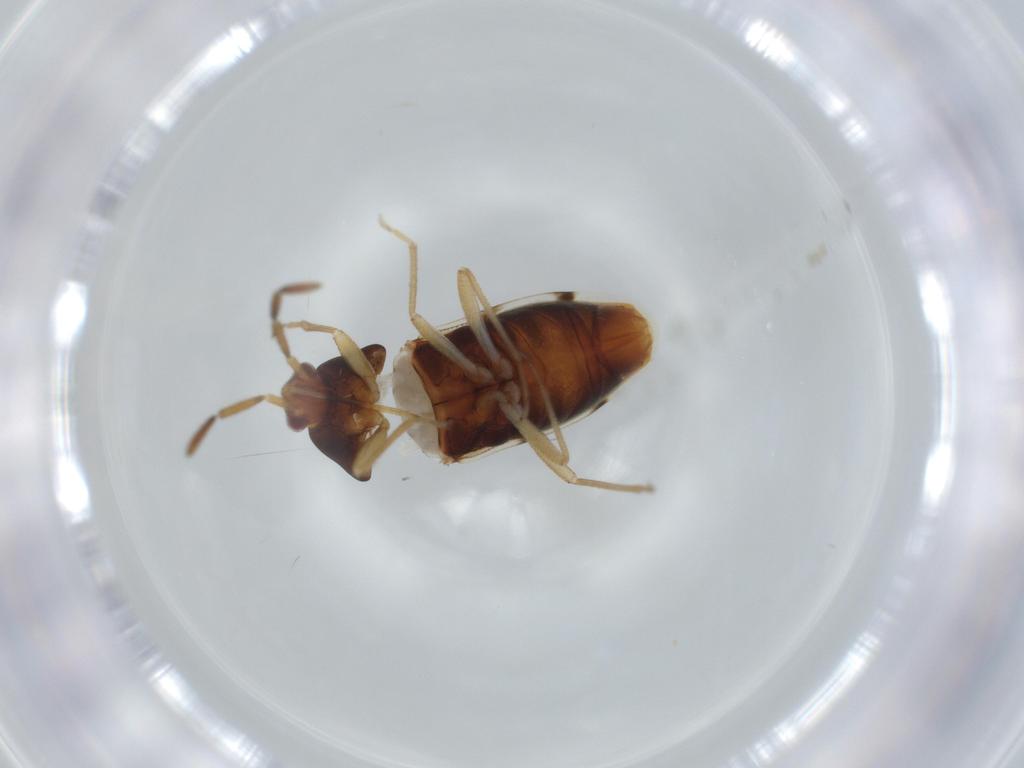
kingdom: Animalia
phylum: Arthropoda
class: Insecta
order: Hemiptera
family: Rhyparochromidae
